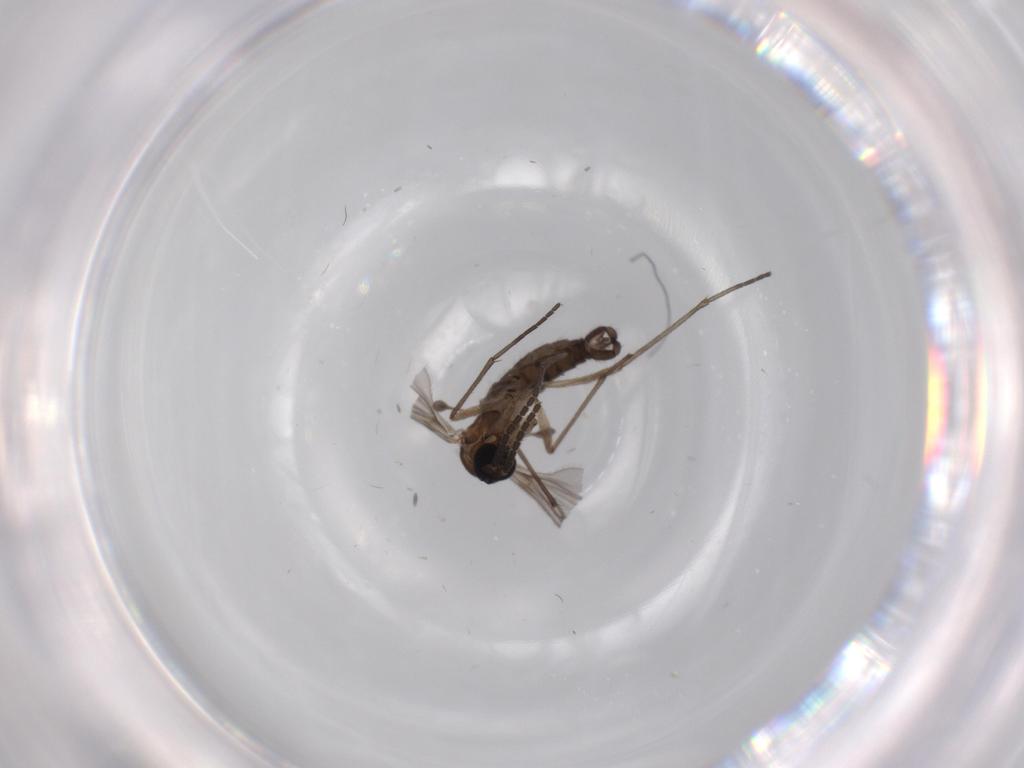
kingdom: Animalia
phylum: Arthropoda
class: Insecta
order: Diptera
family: Sciaridae
